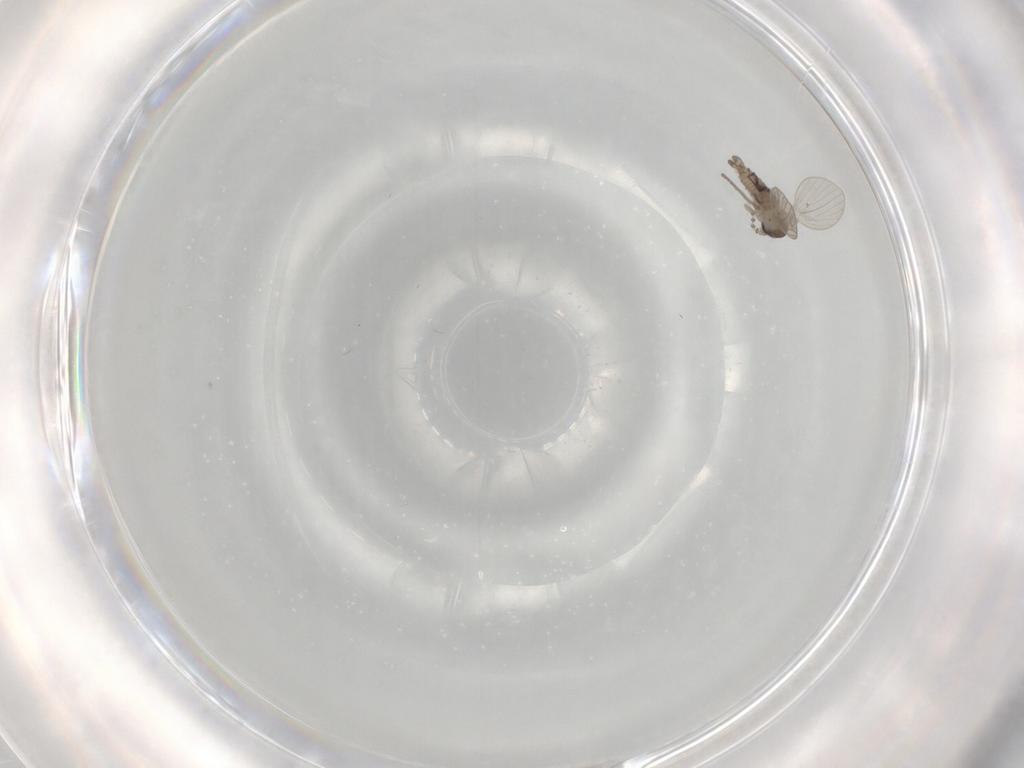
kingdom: Animalia
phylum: Arthropoda
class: Insecta
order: Diptera
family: Psychodidae
